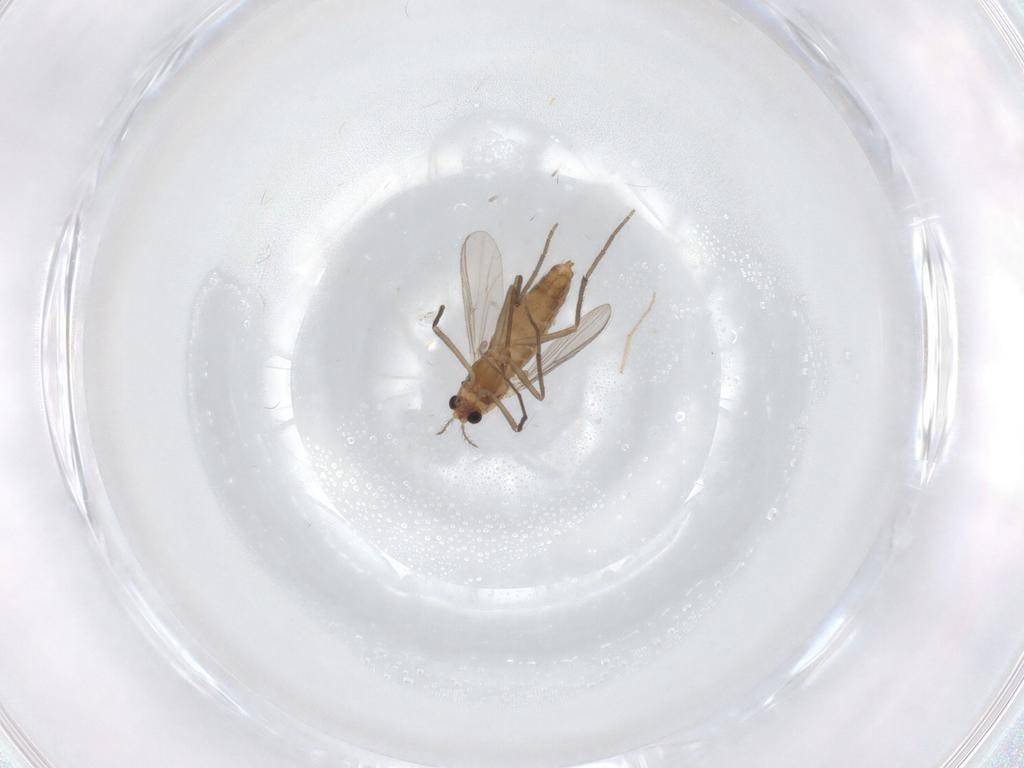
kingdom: Animalia
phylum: Arthropoda
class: Insecta
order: Diptera
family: Chironomidae
